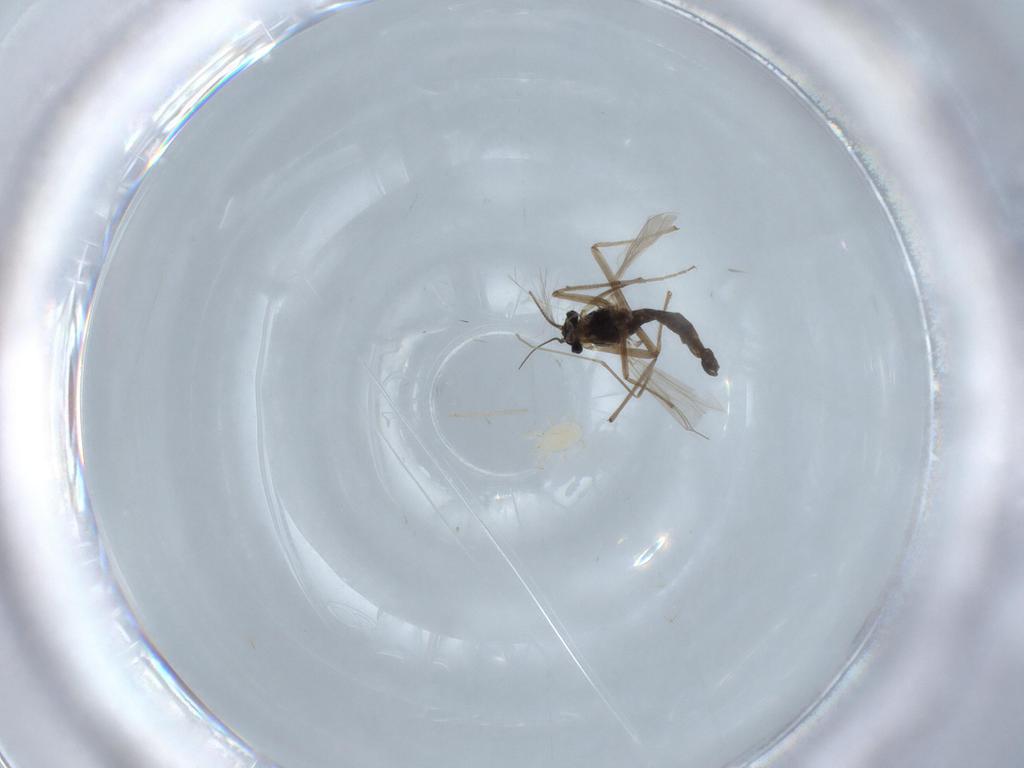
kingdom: Animalia
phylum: Arthropoda
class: Insecta
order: Diptera
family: Chironomidae
